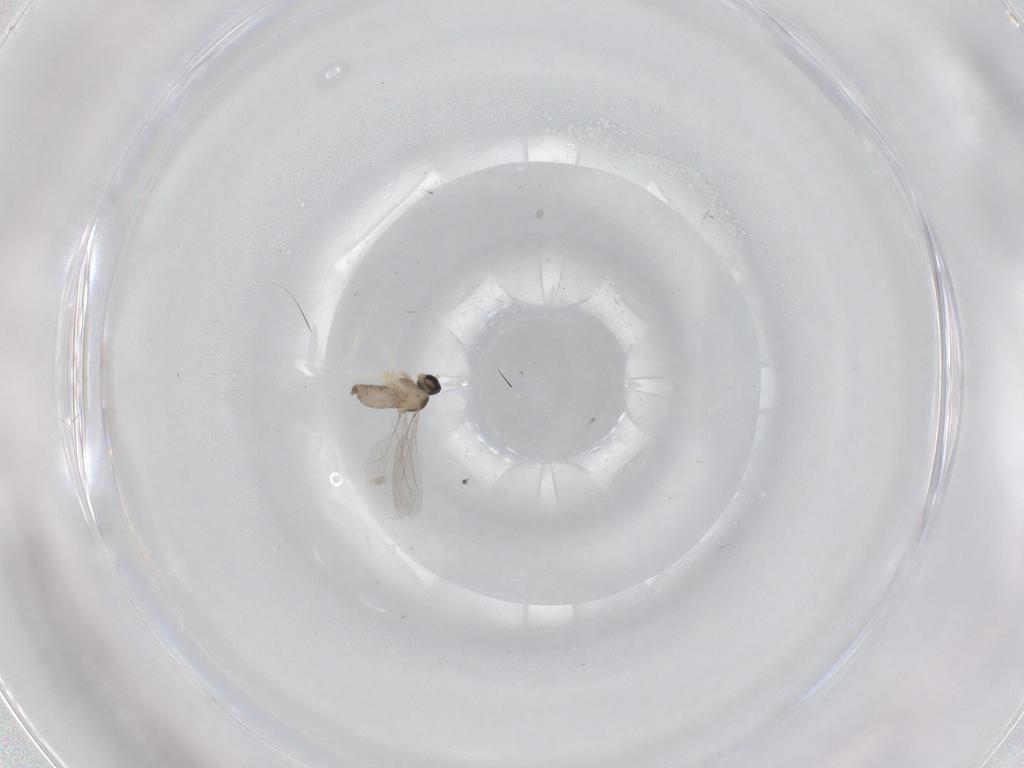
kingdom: Animalia
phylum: Arthropoda
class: Insecta
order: Diptera
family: Cecidomyiidae
